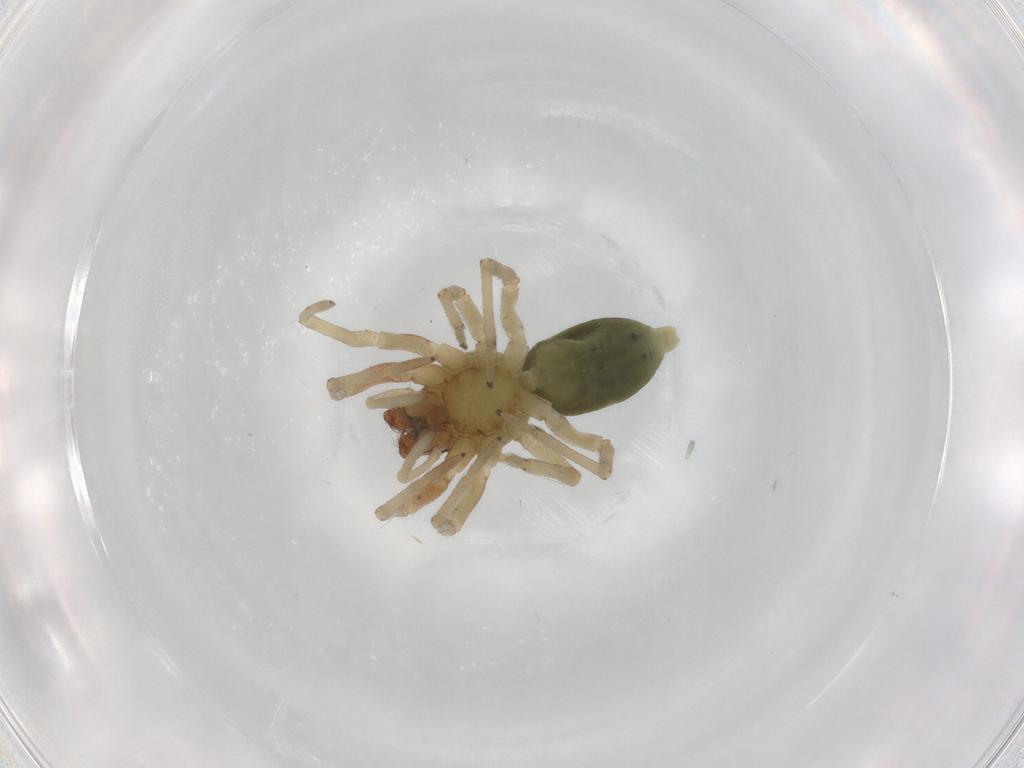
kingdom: Animalia
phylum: Arthropoda
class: Arachnida
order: Araneae
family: Trachelidae
